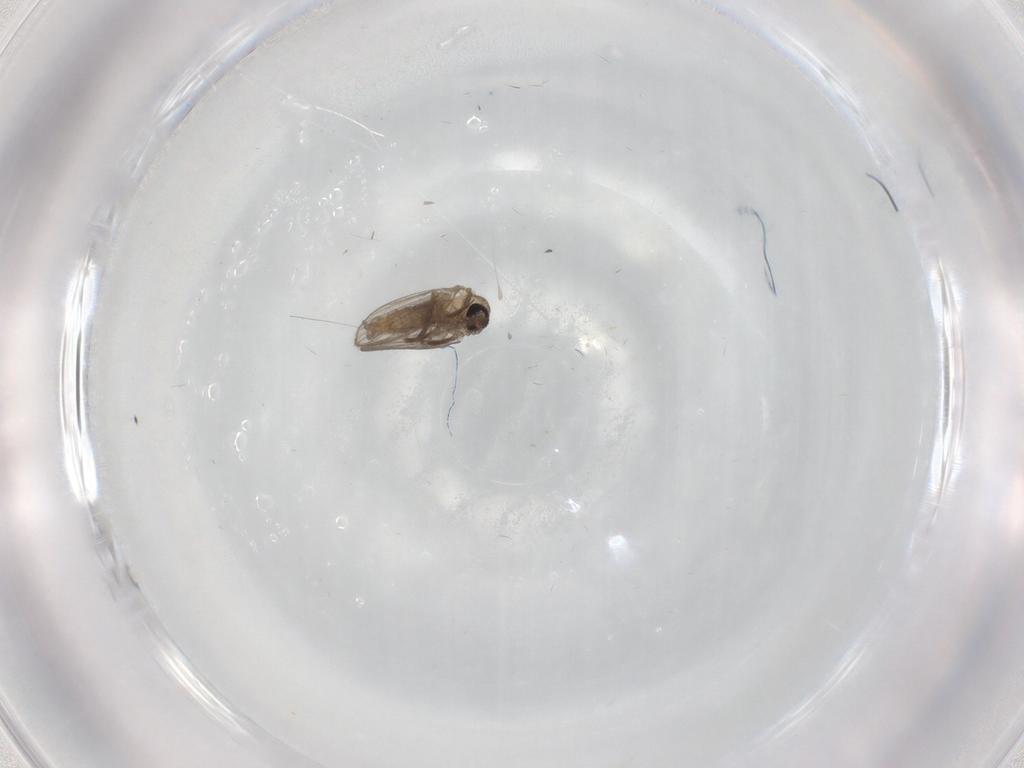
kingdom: Animalia
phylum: Arthropoda
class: Insecta
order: Diptera
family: Psychodidae
